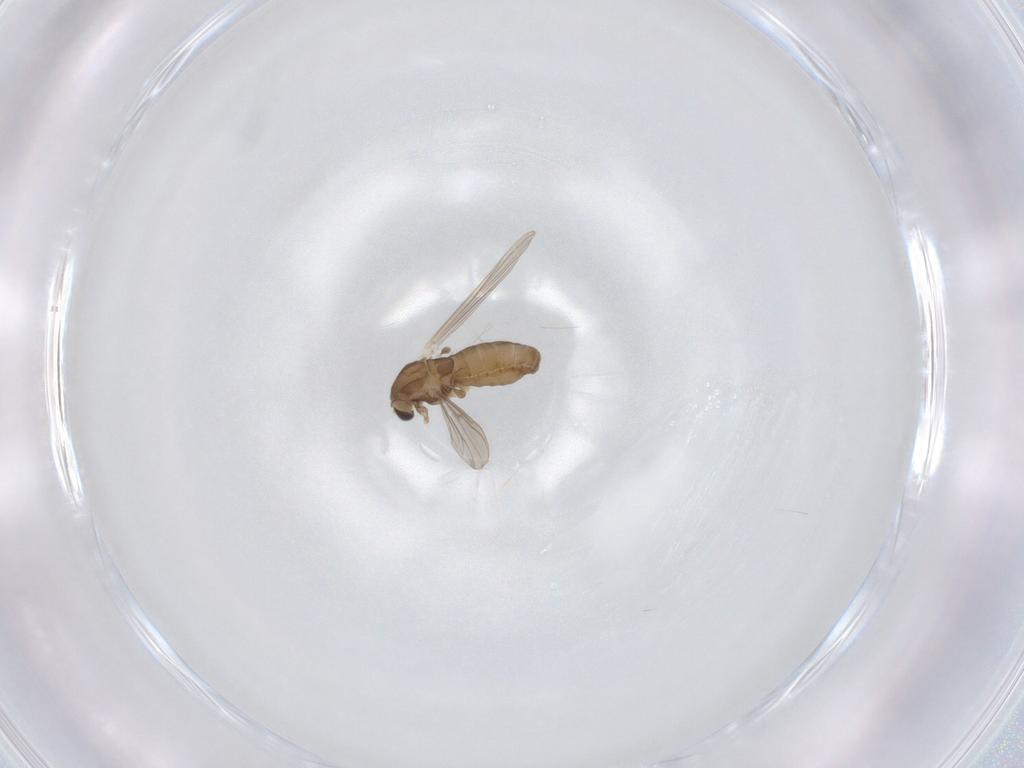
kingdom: Animalia
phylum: Arthropoda
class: Insecta
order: Diptera
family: Chironomidae
